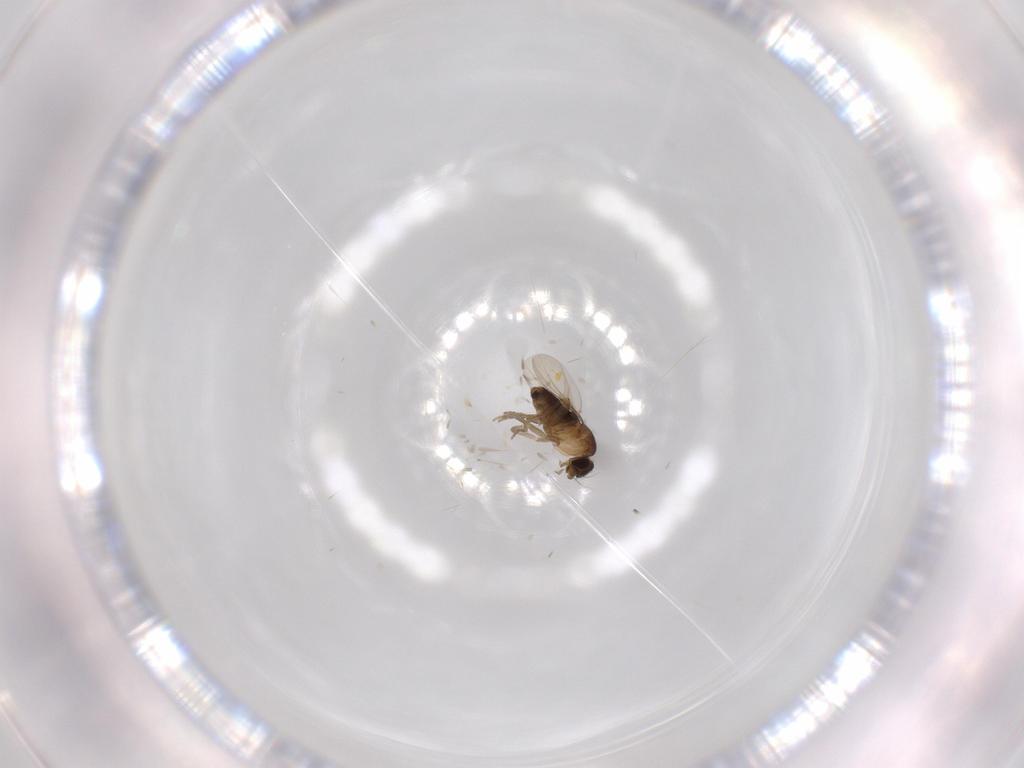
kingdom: Animalia
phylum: Arthropoda
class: Insecta
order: Diptera
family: Phoridae
